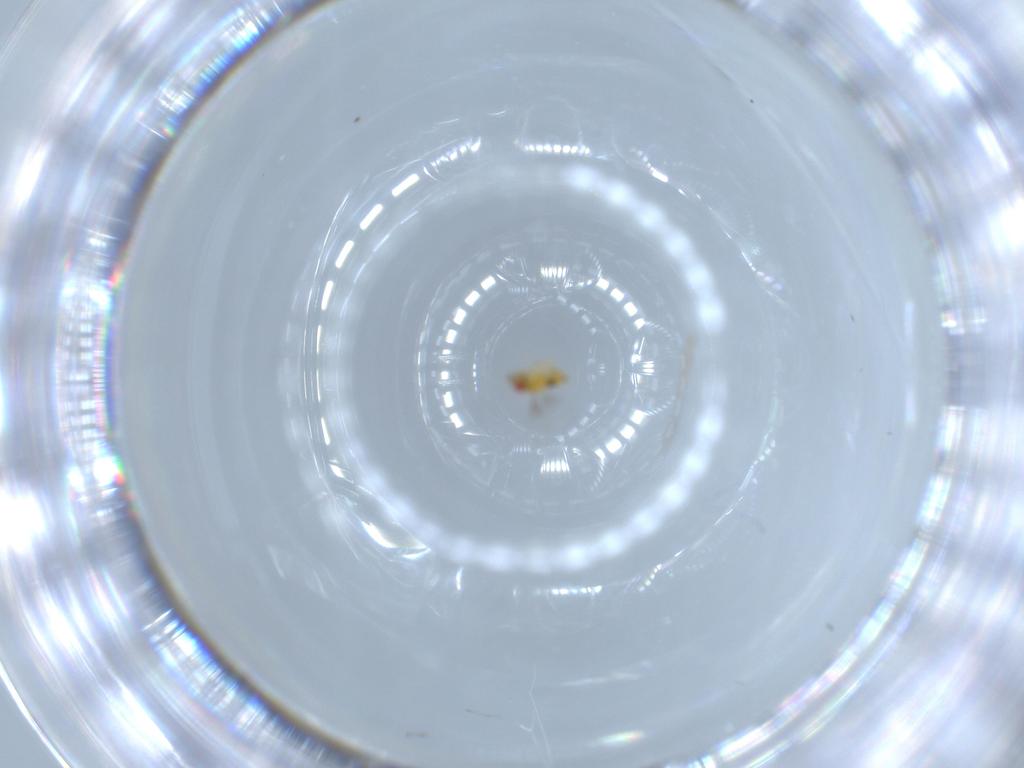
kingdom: Animalia
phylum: Arthropoda
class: Insecta
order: Hymenoptera
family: Trichogrammatidae
